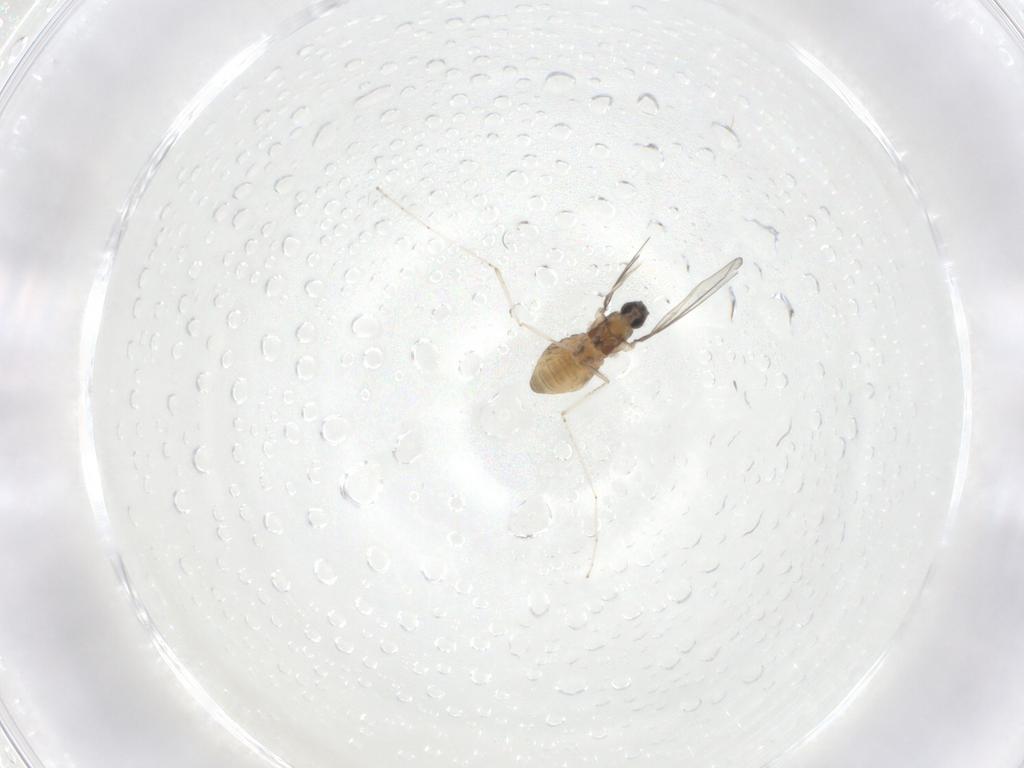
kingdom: Animalia
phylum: Arthropoda
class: Insecta
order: Diptera
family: Cecidomyiidae
